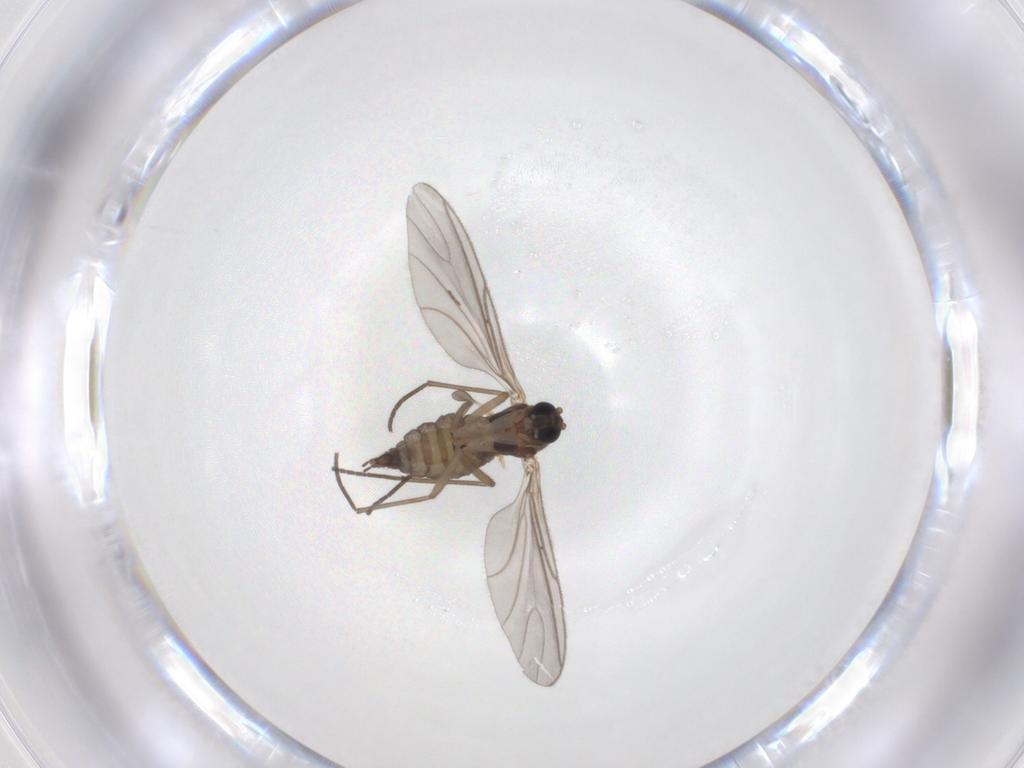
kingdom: Animalia
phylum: Arthropoda
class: Insecta
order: Diptera
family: Sciaridae
